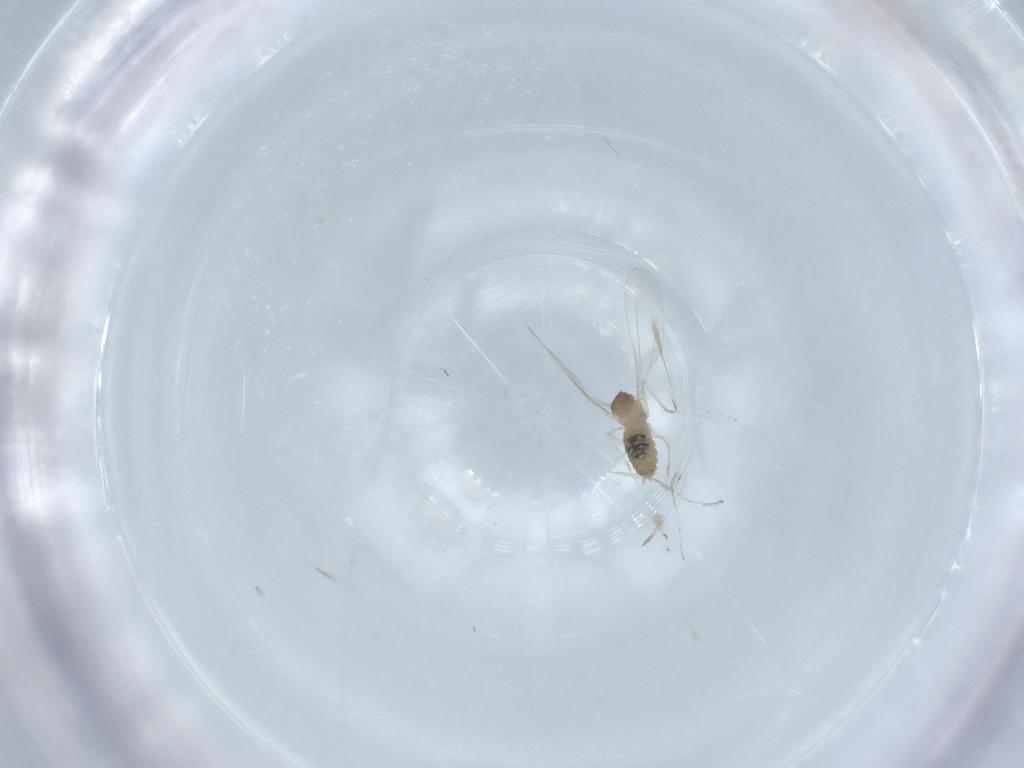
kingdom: Animalia
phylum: Arthropoda
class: Insecta
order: Diptera
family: Cecidomyiidae
